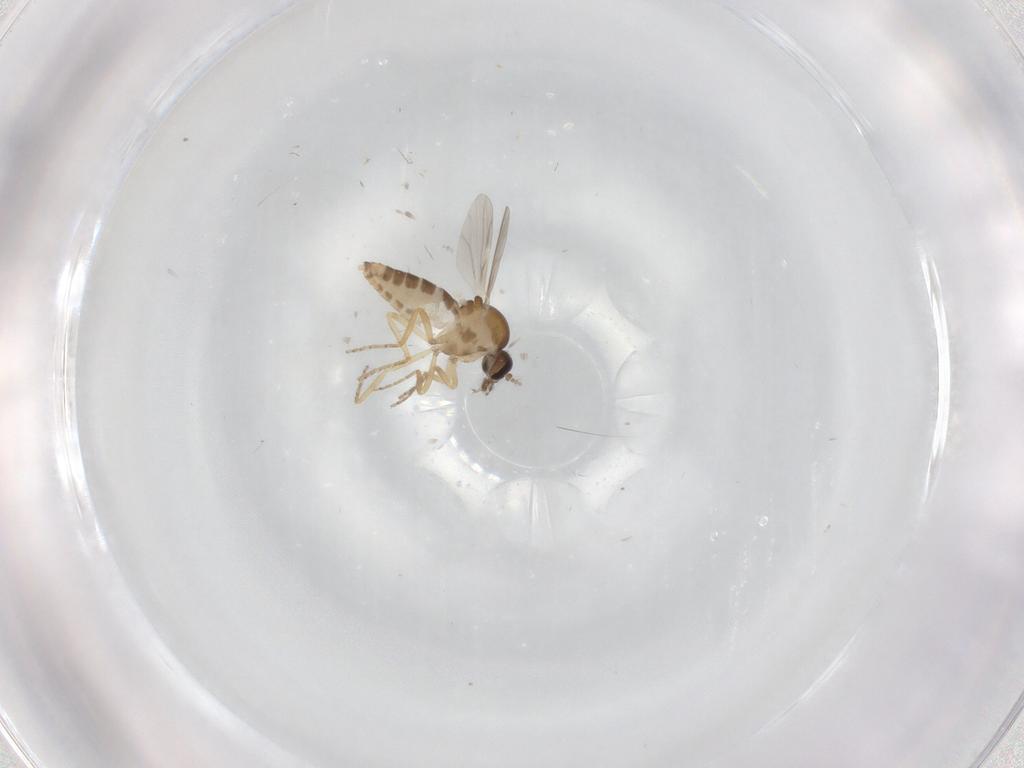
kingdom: Animalia
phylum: Arthropoda
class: Insecta
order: Diptera
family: Ceratopogonidae
